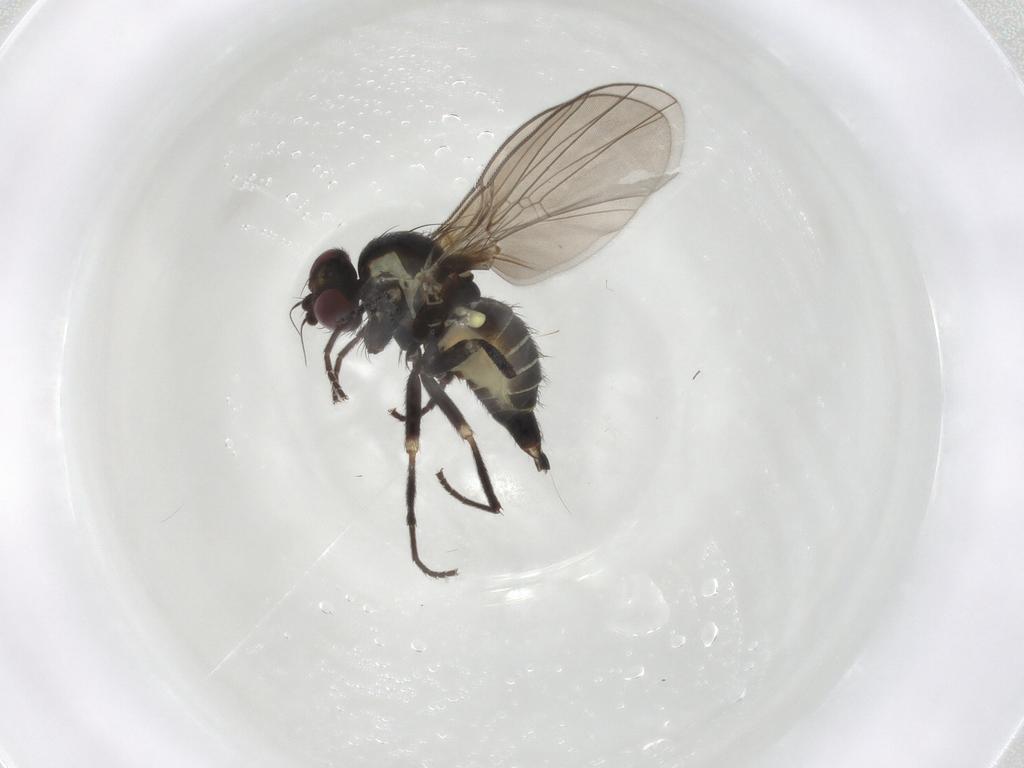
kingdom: Animalia
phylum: Arthropoda
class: Insecta
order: Diptera
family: Agromyzidae
